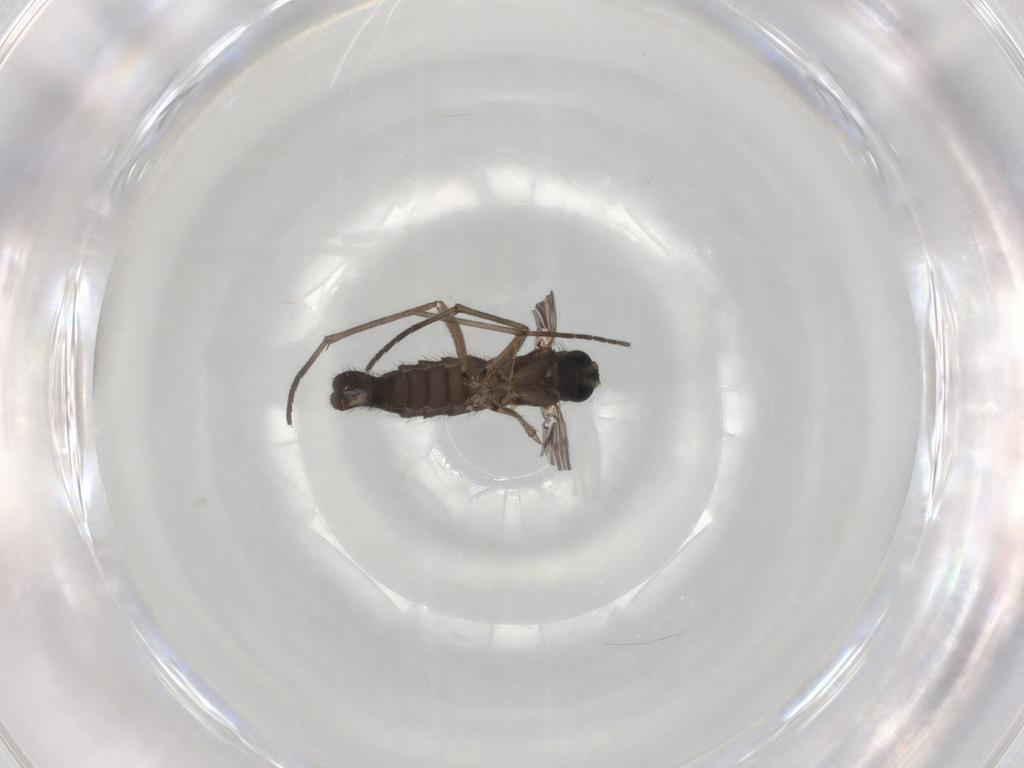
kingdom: Animalia
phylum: Arthropoda
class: Insecta
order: Diptera
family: Sciaridae
